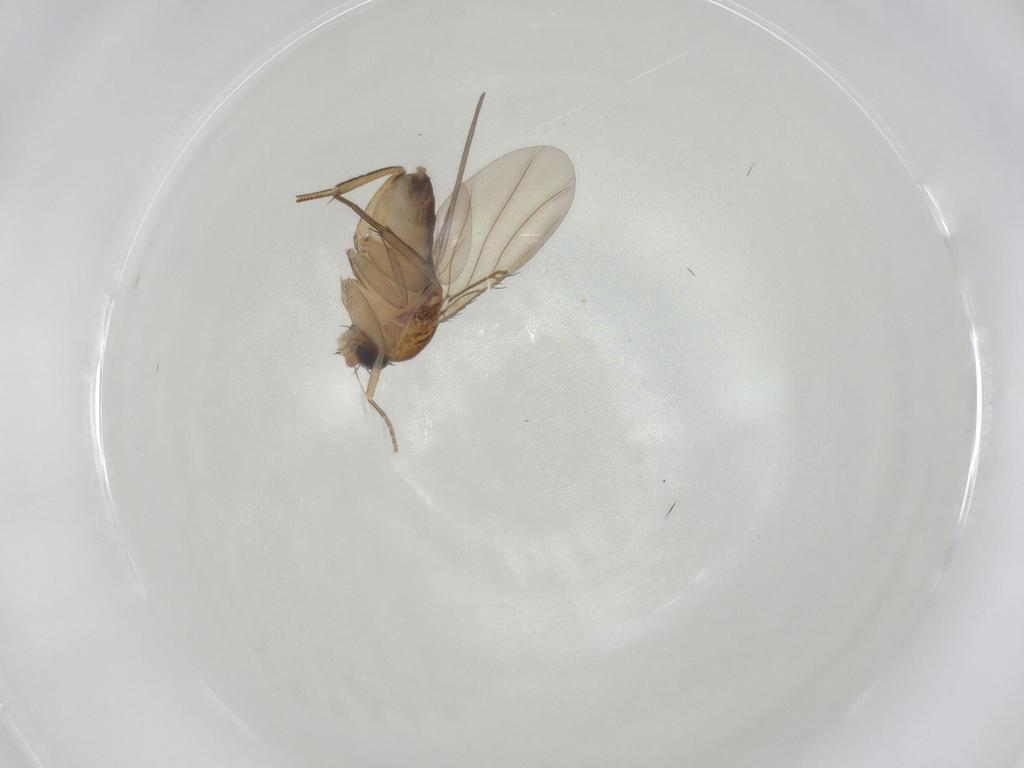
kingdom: Animalia
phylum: Arthropoda
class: Insecta
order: Diptera
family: Phoridae
